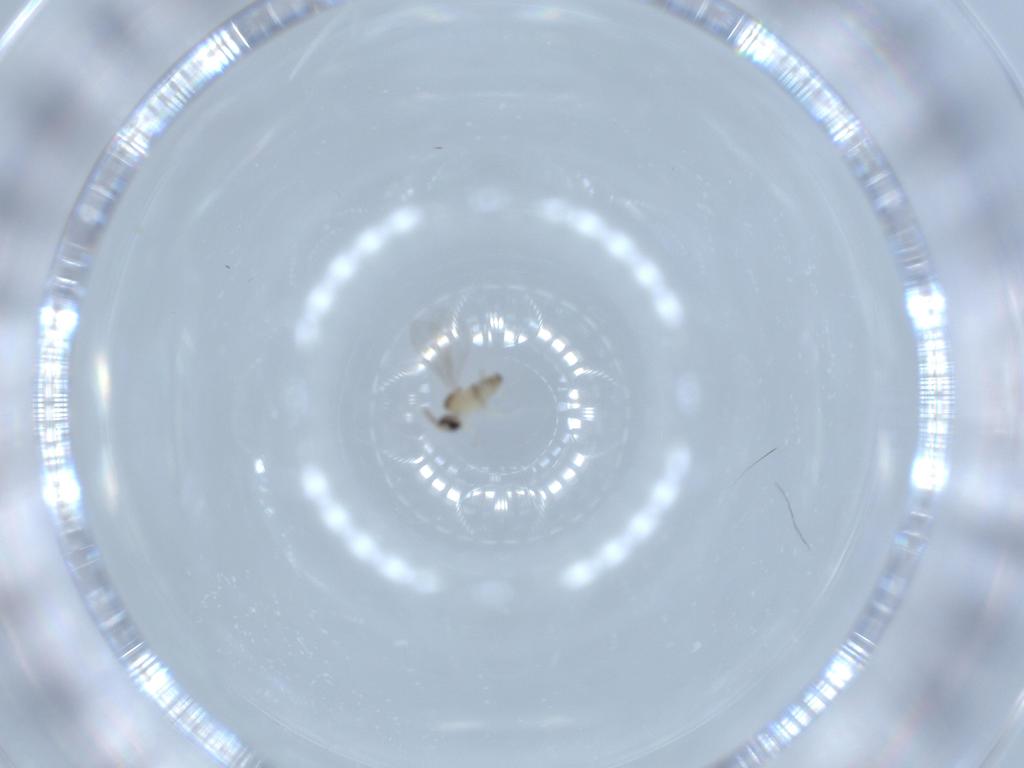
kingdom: Animalia
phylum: Arthropoda
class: Insecta
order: Diptera
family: Cecidomyiidae
